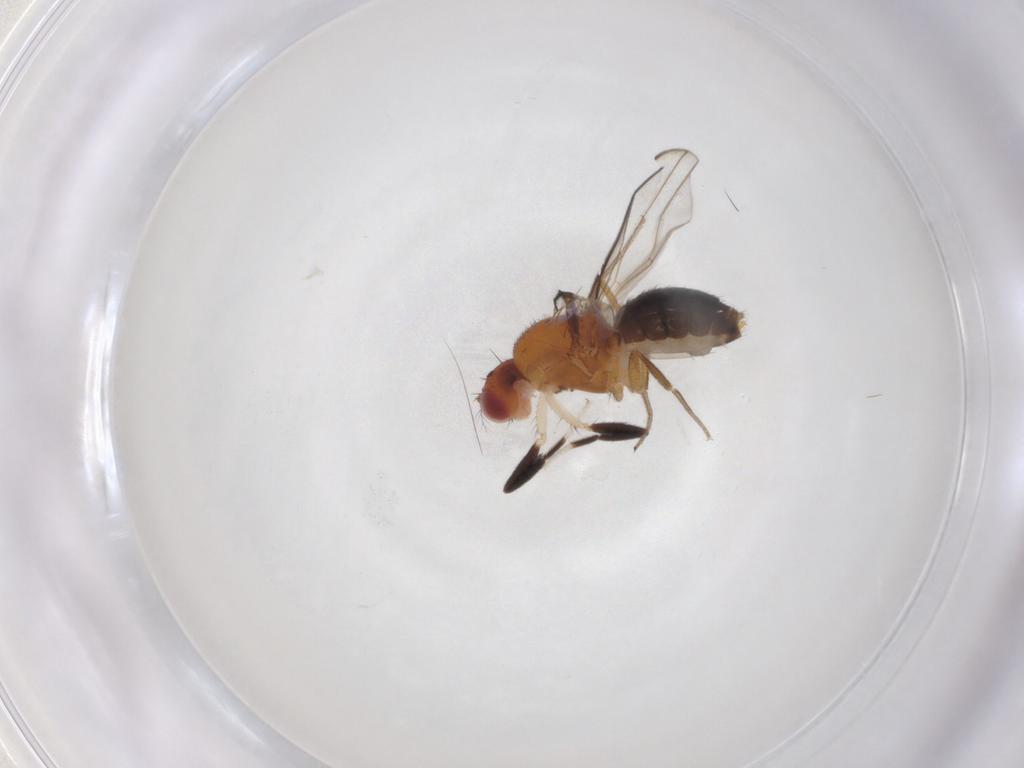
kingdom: Animalia
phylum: Arthropoda
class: Insecta
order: Diptera
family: Drosophilidae
